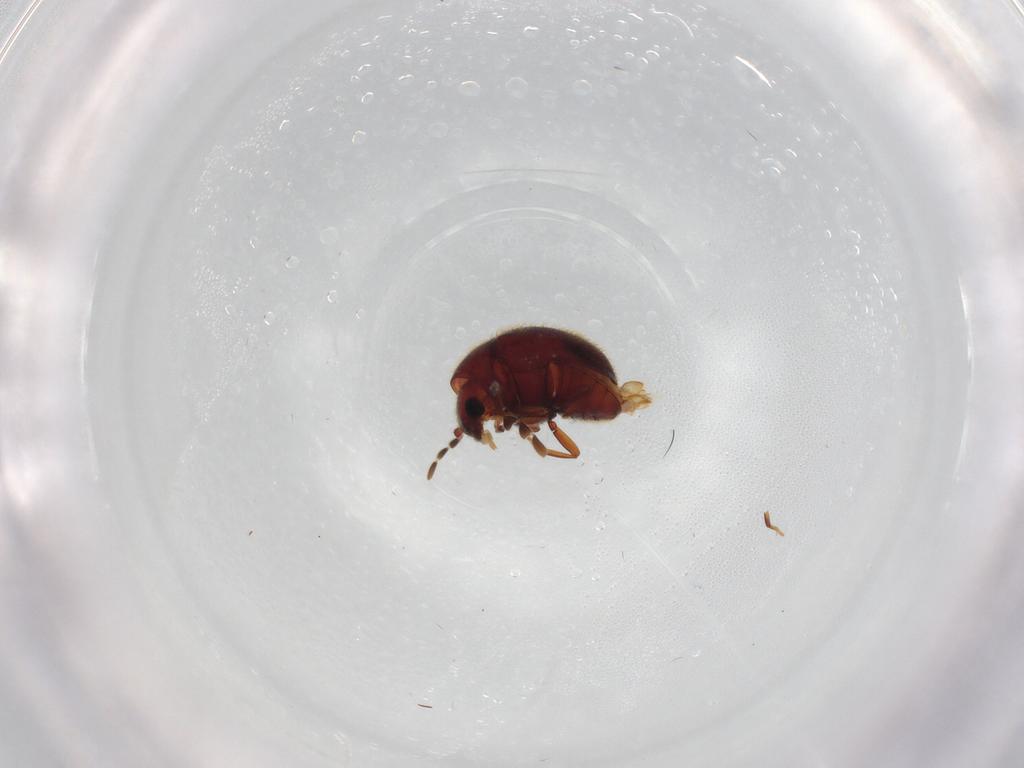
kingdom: Animalia
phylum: Arthropoda
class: Insecta
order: Coleoptera
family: Ptinidae
